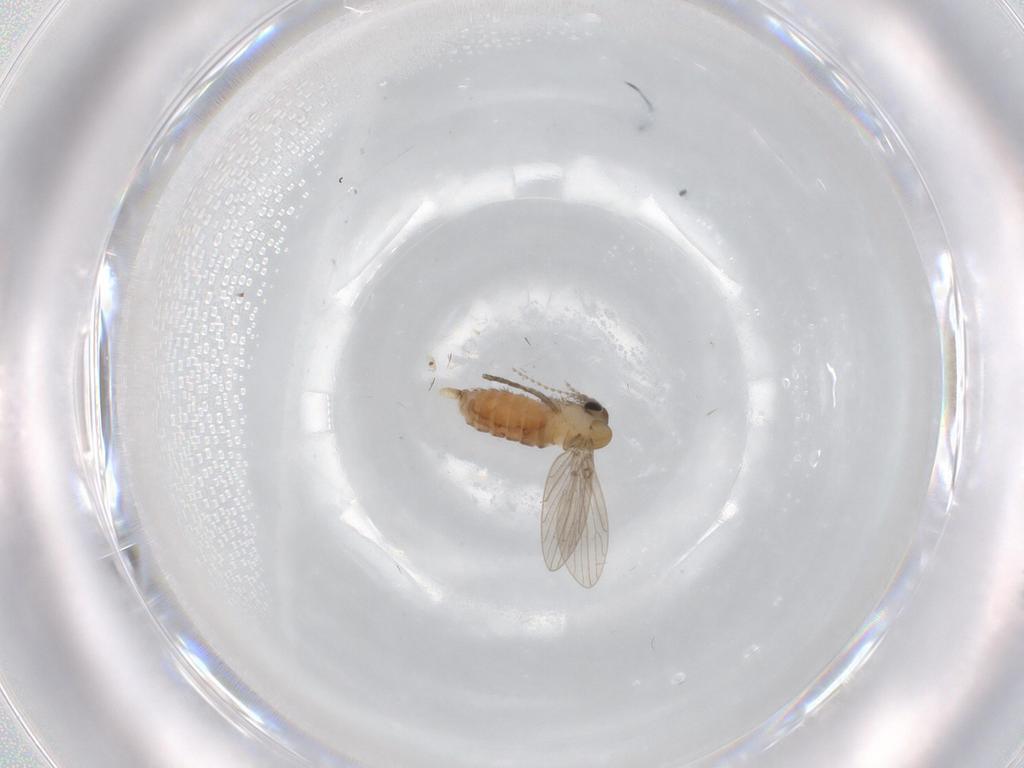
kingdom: Animalia
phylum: Arthropoda
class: Insecta
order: Diptera
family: Psychodidae
